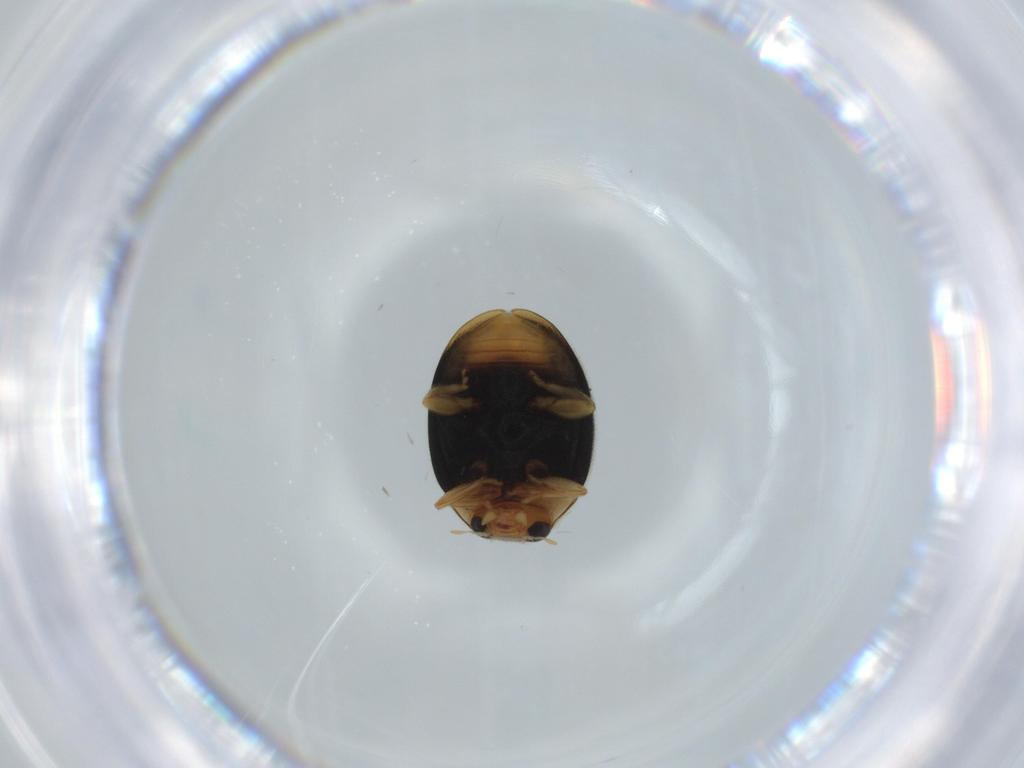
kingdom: Animalia
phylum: Arthropoda
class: Insecta
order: Coleoptera
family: Coccinellidae
